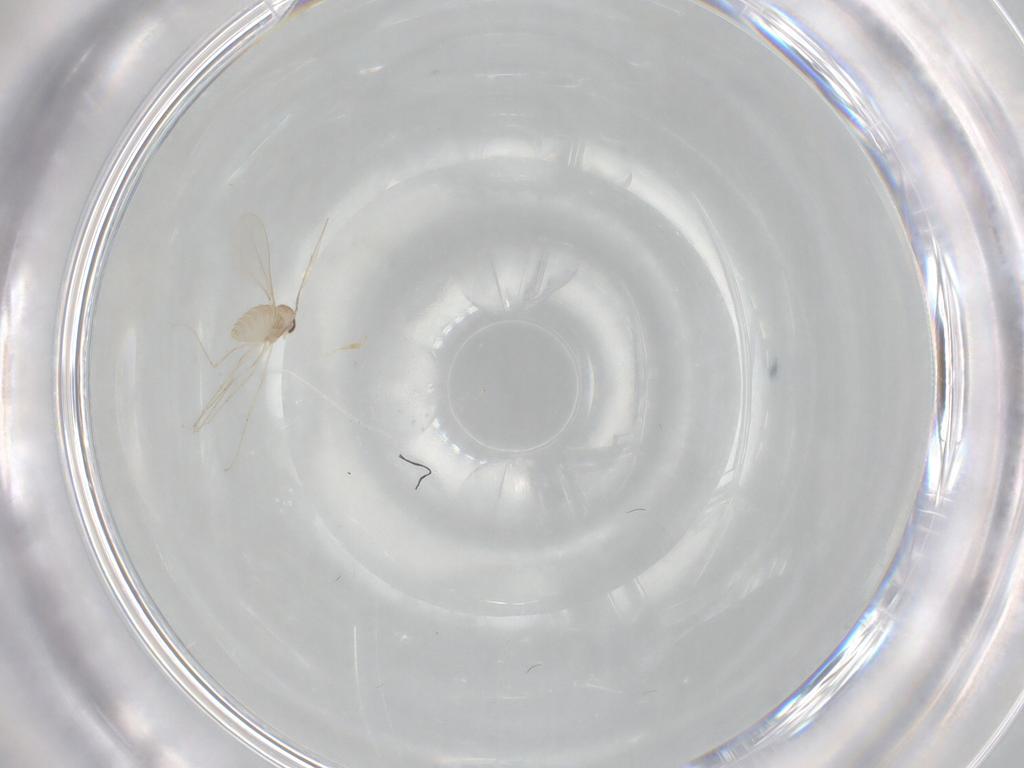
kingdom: Animalia
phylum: Arthropoda
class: Insecta
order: Diptera
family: Cecidomyiidae
